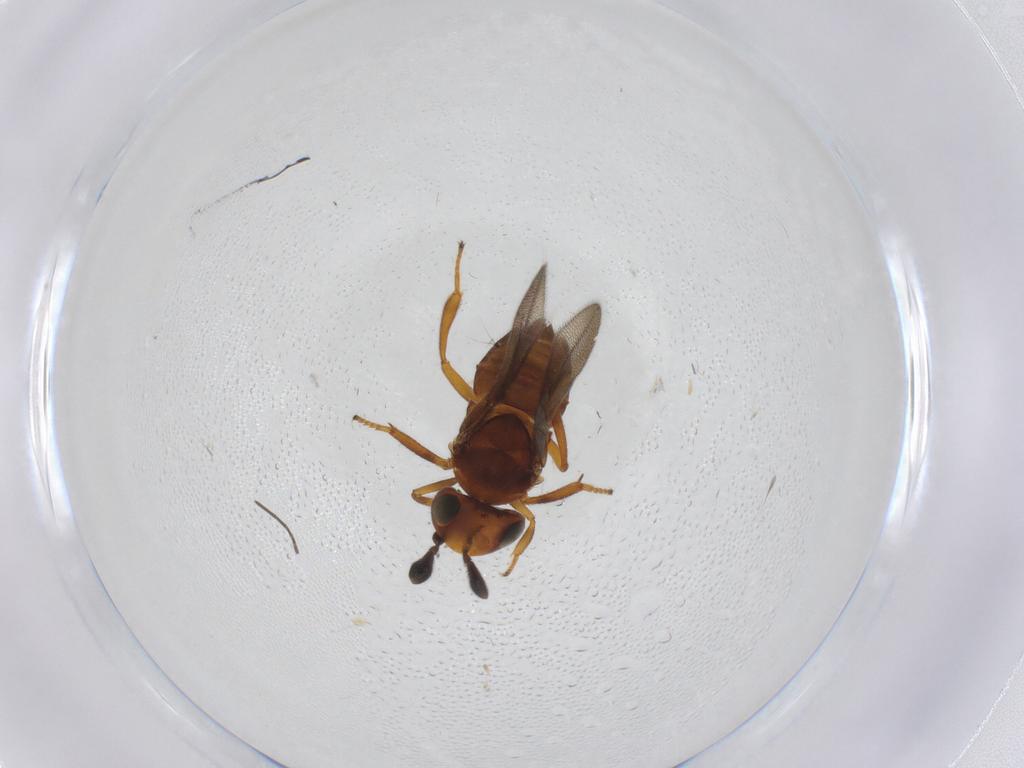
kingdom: Animalia
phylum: Arthropoda
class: Insecta
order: Hymenoptera
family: Encyrtidae
